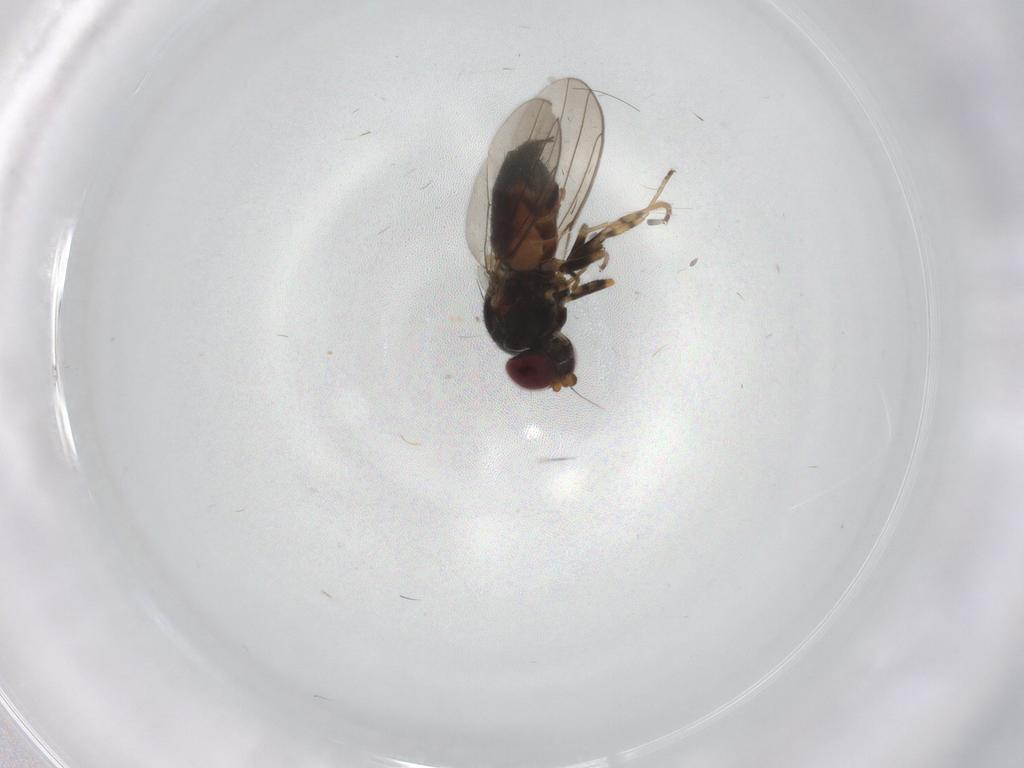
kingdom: Animalia
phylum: Arthropoda
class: Insecta
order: Diptera
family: Chloropidae
